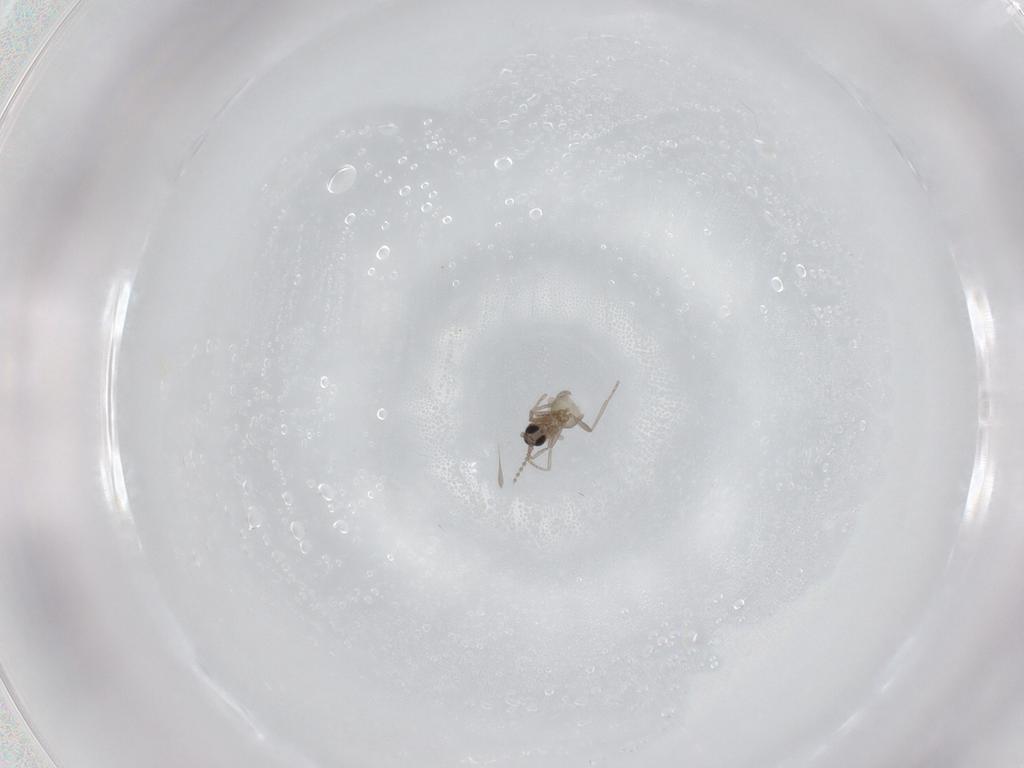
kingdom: Animalia
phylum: Arthropoda
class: Insecta
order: Diptera
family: Cecidomyiidae
